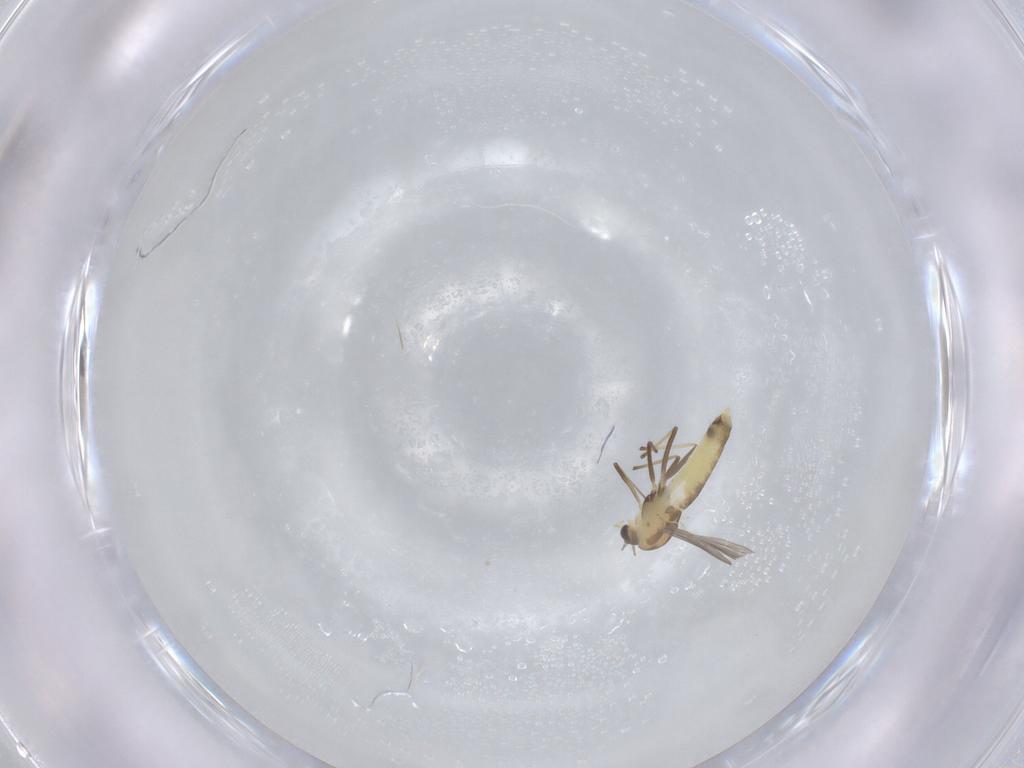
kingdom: Animalia
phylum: Arthropoda
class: Insecta
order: Diptera
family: Chironomidae
